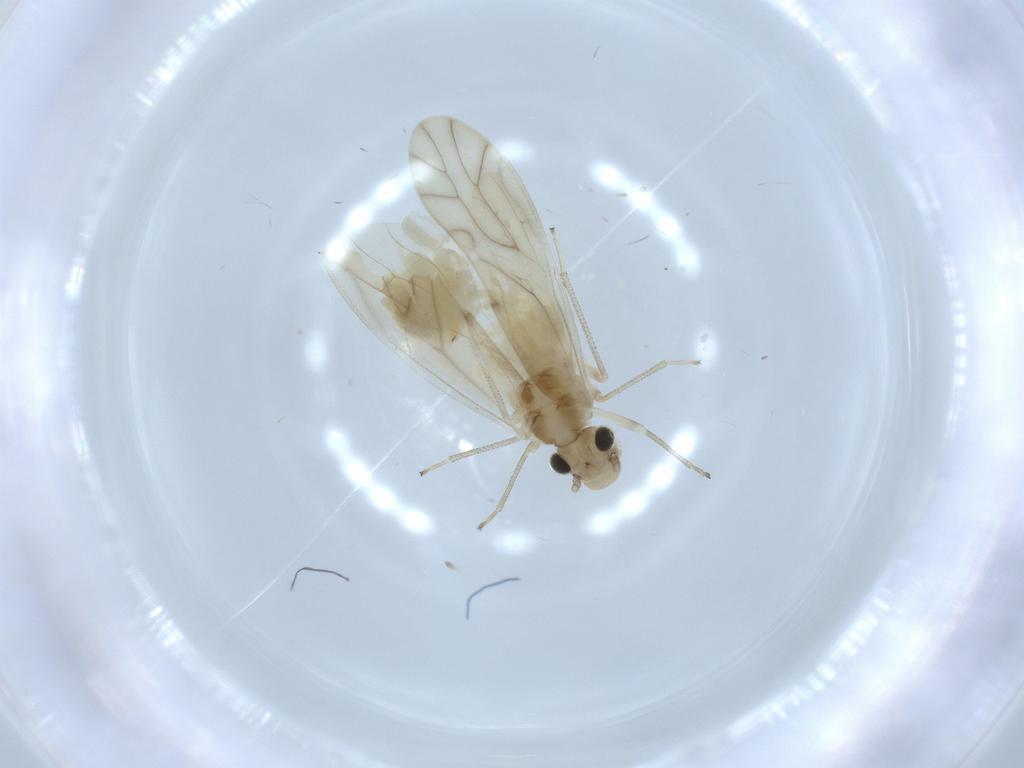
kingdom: Animalia
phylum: Arthropoda
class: Insecta
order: Psocodea
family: Caeciliusidae
